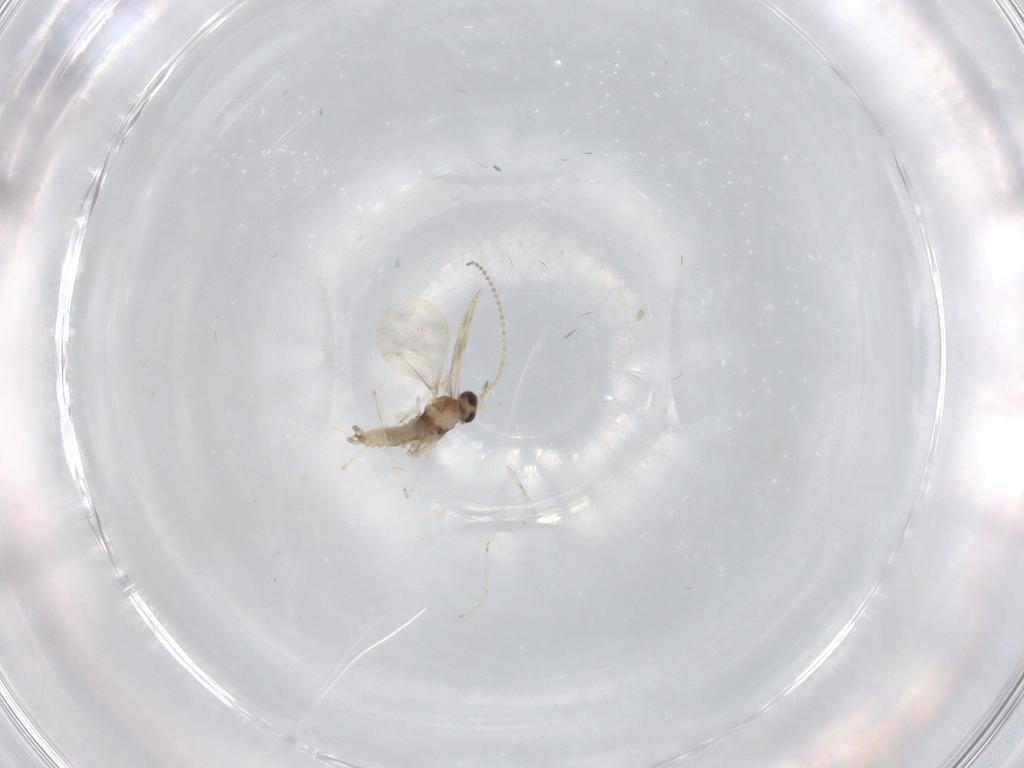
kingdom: Animalia
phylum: Arthropoda
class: Insecta
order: Diptera
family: Cecidomyiidae
